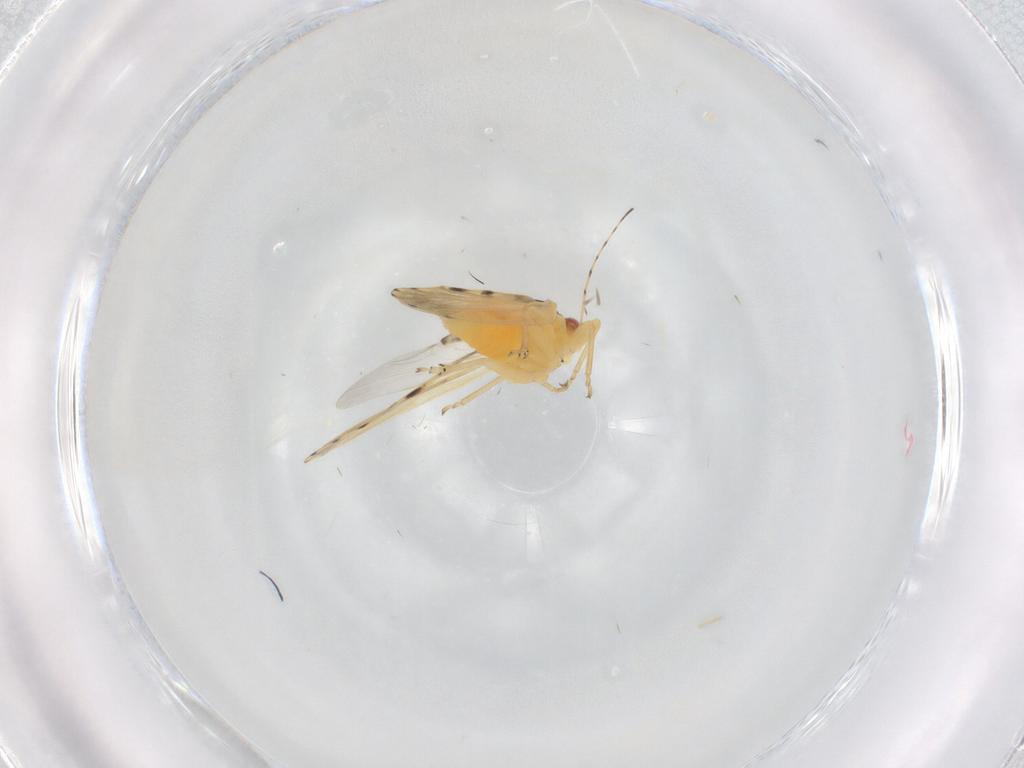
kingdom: Animalia
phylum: Arthropoda
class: Insecta
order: Hemiptera
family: Aphididae
